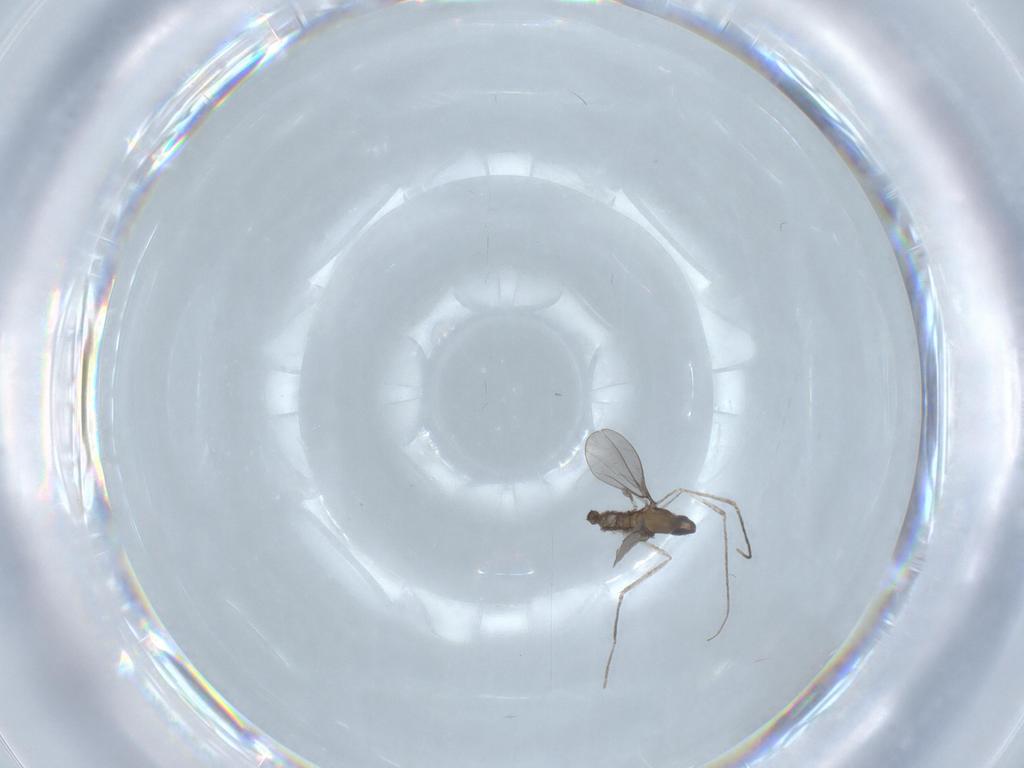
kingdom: Animalia
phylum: Arthropoda
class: Insecta
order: Diptera
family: Cecidomyiidae
